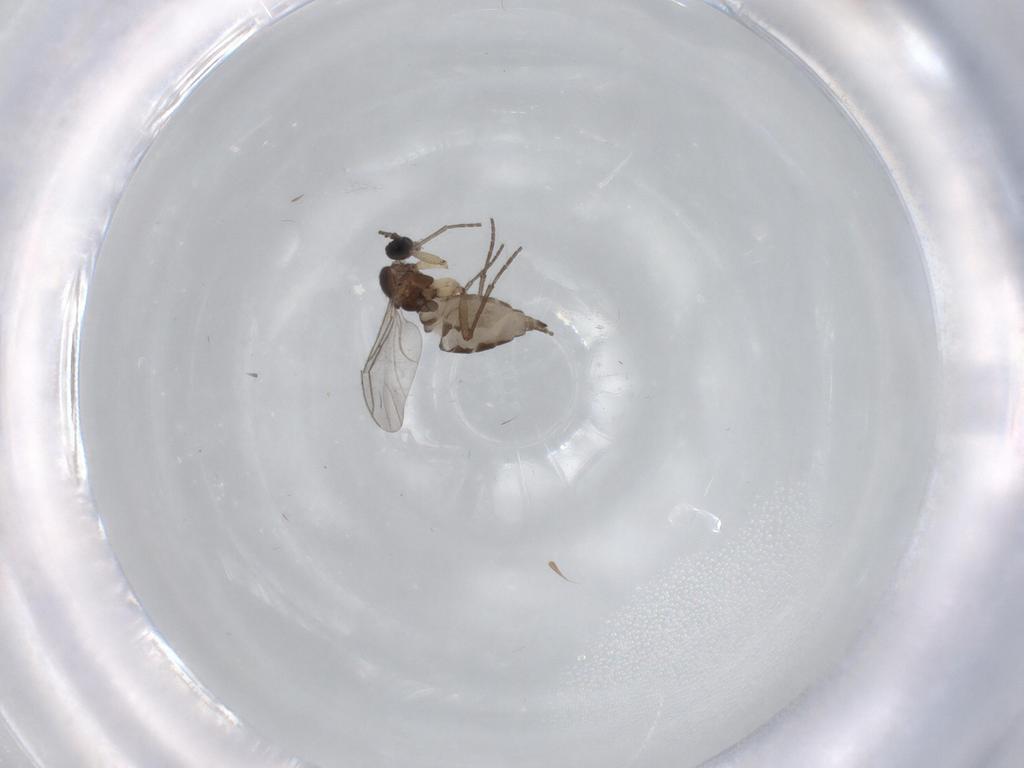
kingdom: Animalia
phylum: Arthropoda
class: Insecta
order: Diptera
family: Sciaridae
